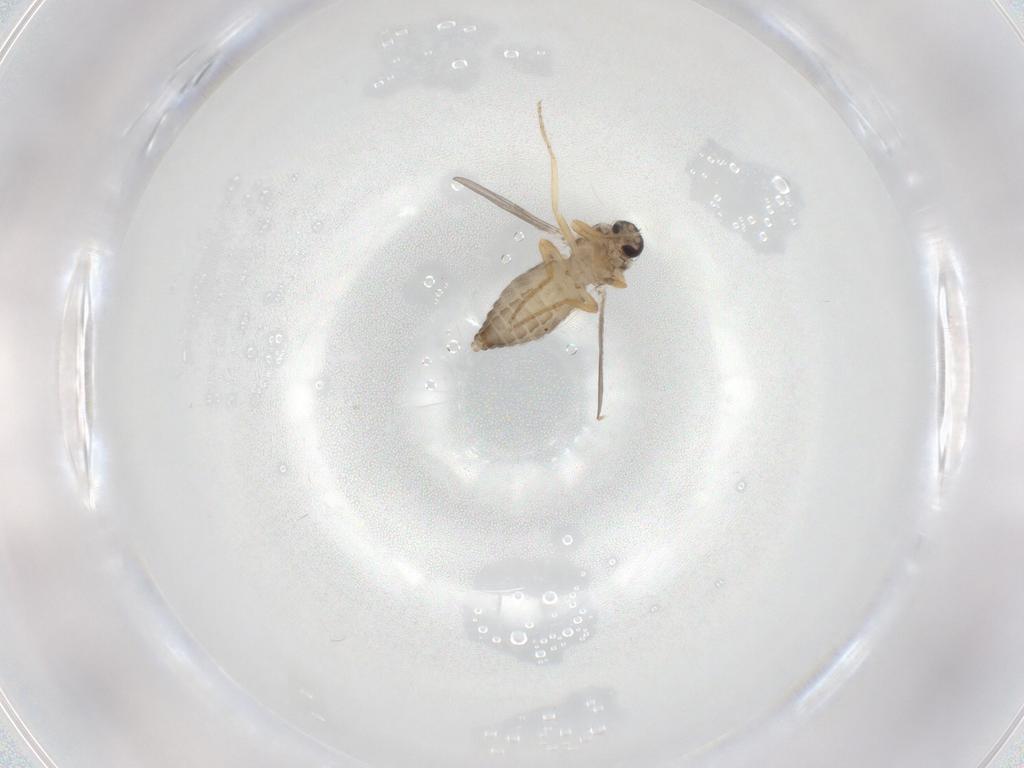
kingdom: Animalia
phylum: Arthropoda
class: Insecta
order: Diptera
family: Ceratopogonidae
